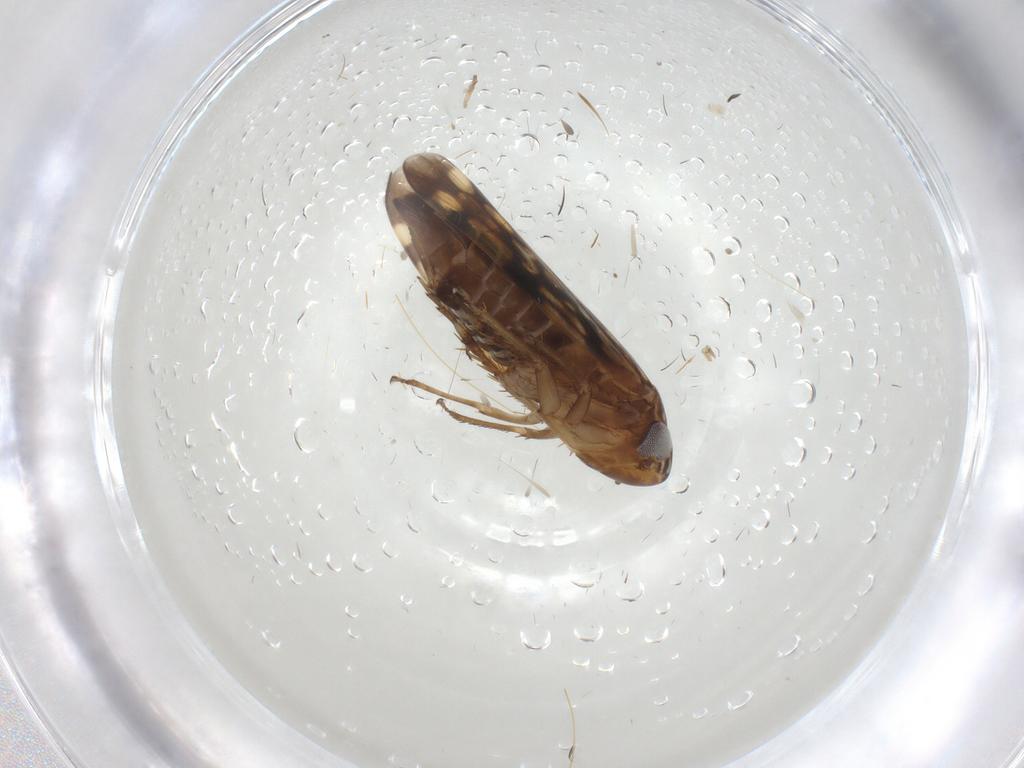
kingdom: Animalia
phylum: Arthropoda
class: Insecta
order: Hemiptera
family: Cicadellidae
